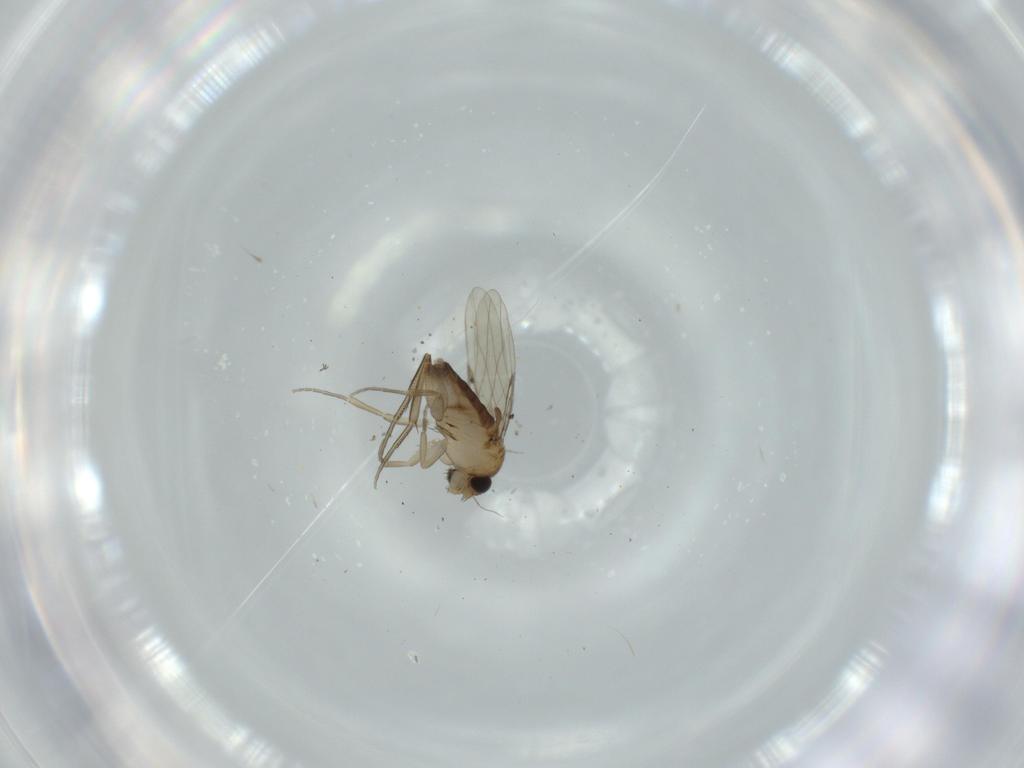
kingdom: Animalia
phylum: Arthropoda
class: Insecta
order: Diptera
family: Phoridae
